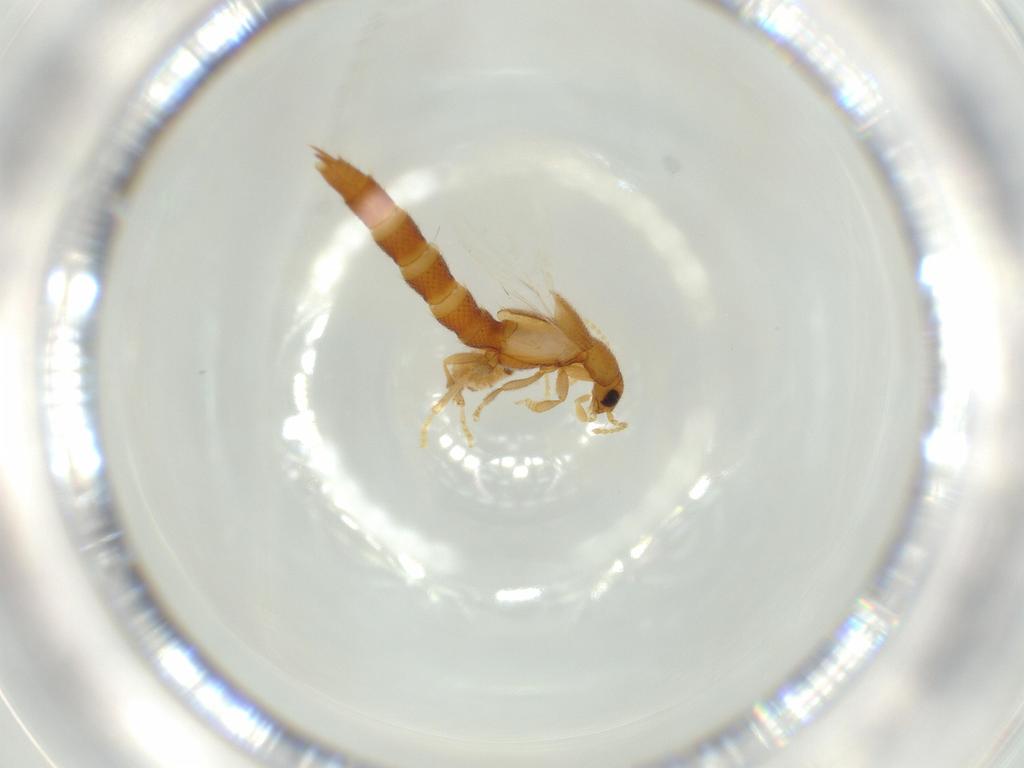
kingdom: Animalia
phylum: Arthropoda
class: Insecta
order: Coleoptera
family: Staphylinidae
